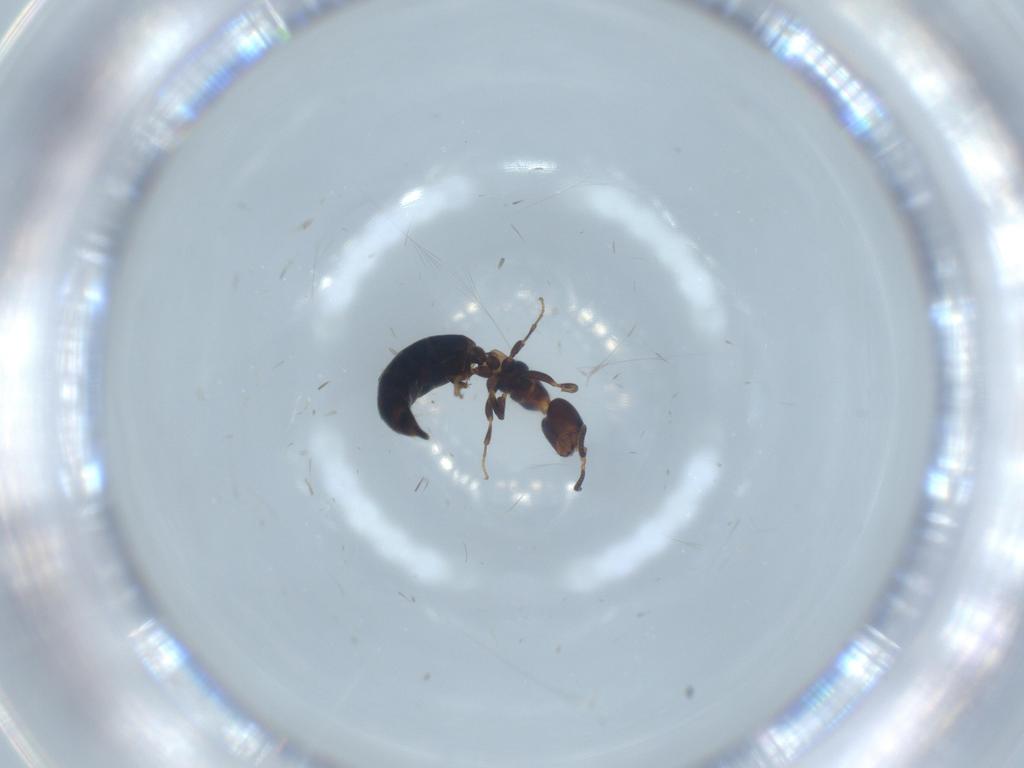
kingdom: Animalia
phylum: Arthropoda
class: Insecta
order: Hymenoptera
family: Bethylidae
